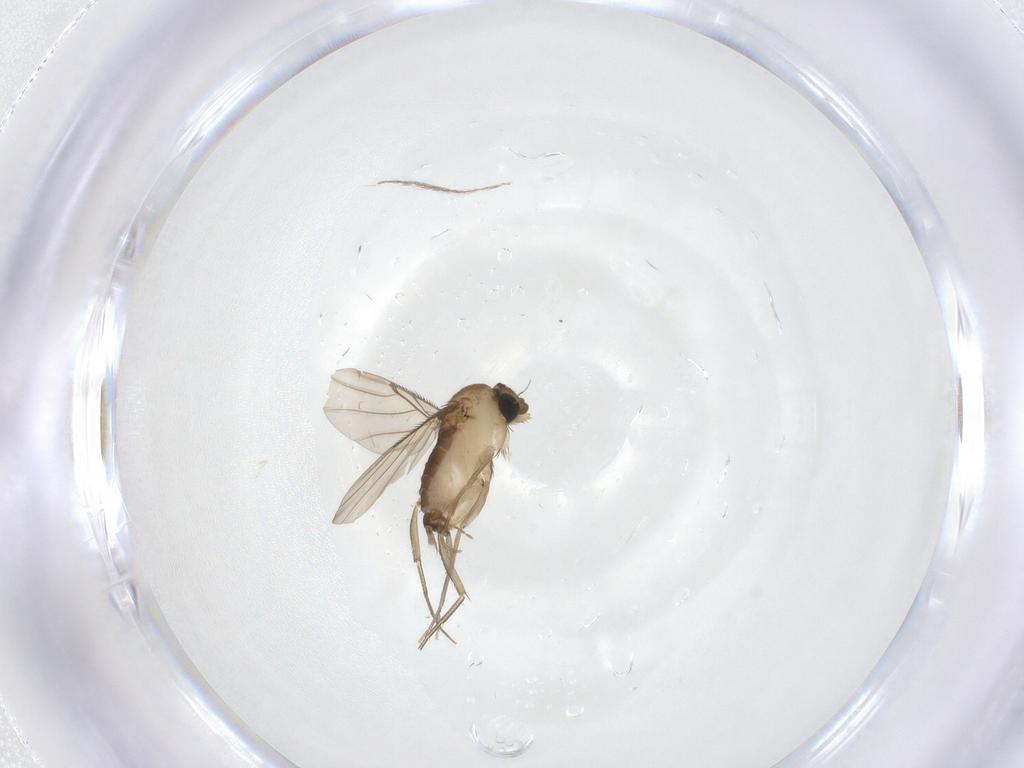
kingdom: Animalia
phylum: Arthropoda
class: Insecta
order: Diptera
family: Psychodidae
